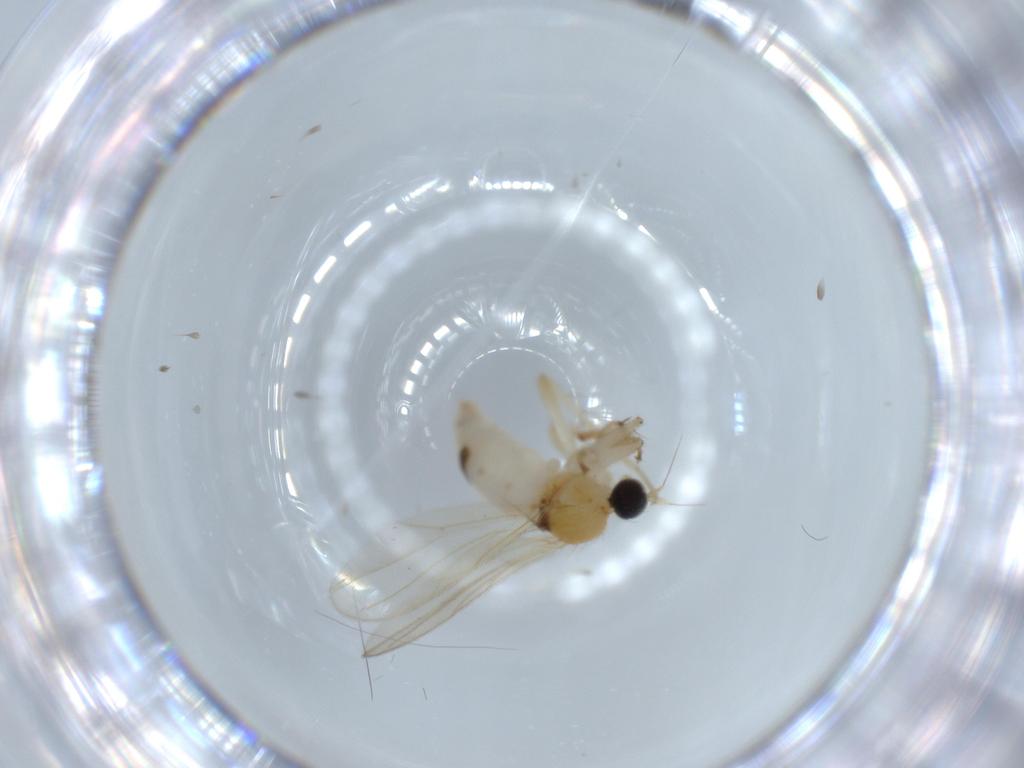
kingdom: Animalia
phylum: Arthropoda
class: Insecta
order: Diptera
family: Hybotidae
